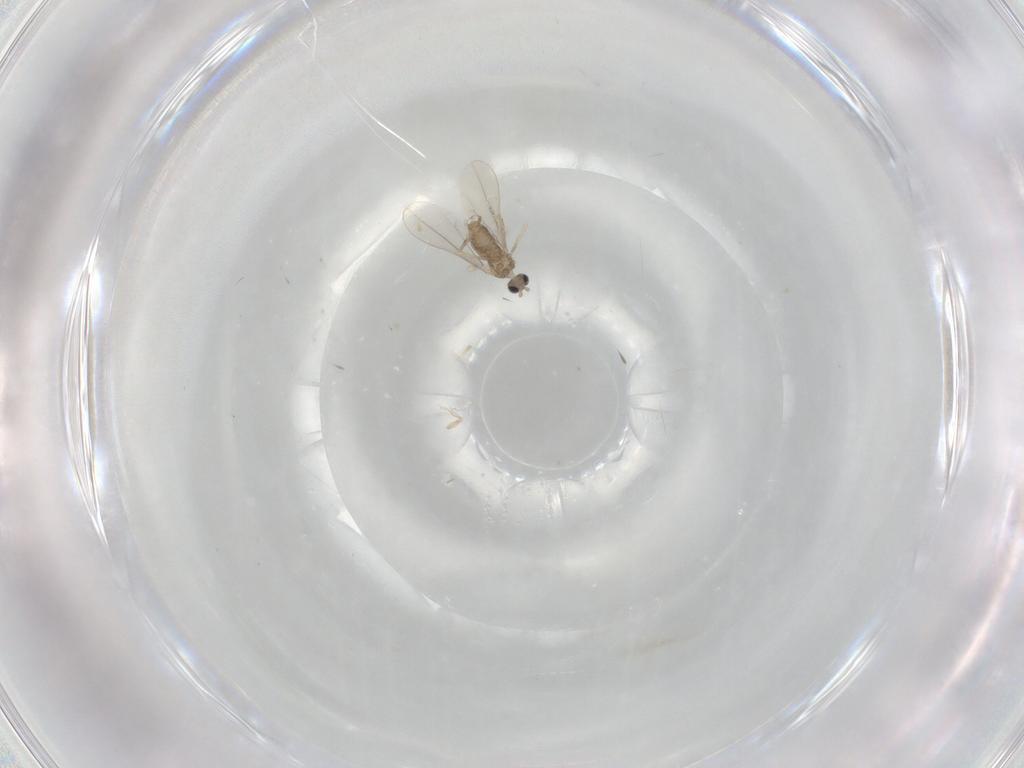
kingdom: Animalia
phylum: Arthropoda
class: Insecta
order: Diptera
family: Cecidomyiidae
